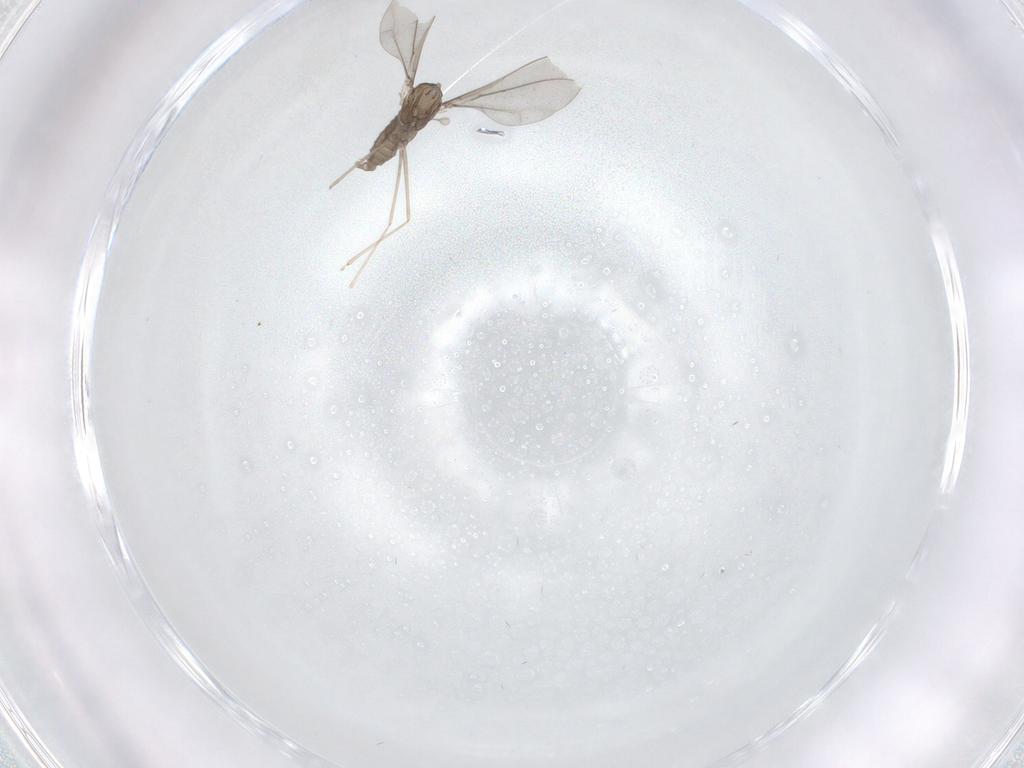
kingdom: Animalia
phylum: Arthropoda
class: Insecta
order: Diptera
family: Cecidomyiidae
